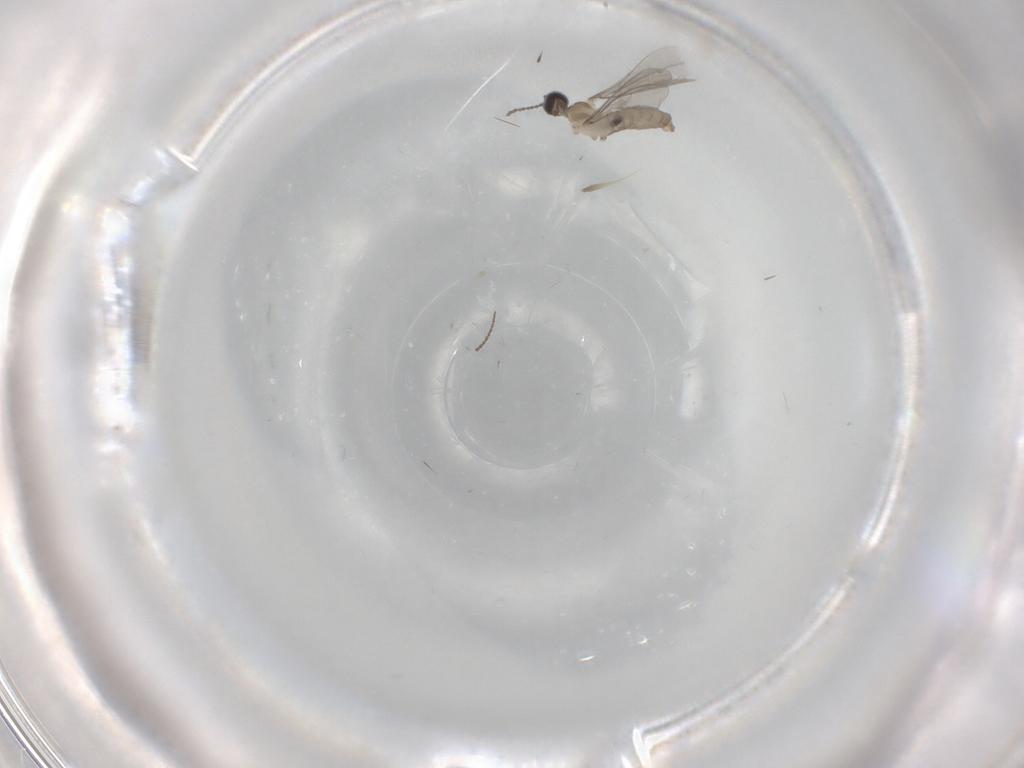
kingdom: Animalia
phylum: Arthropoda
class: Insecta
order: Diptera
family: Cecidomyiidae
